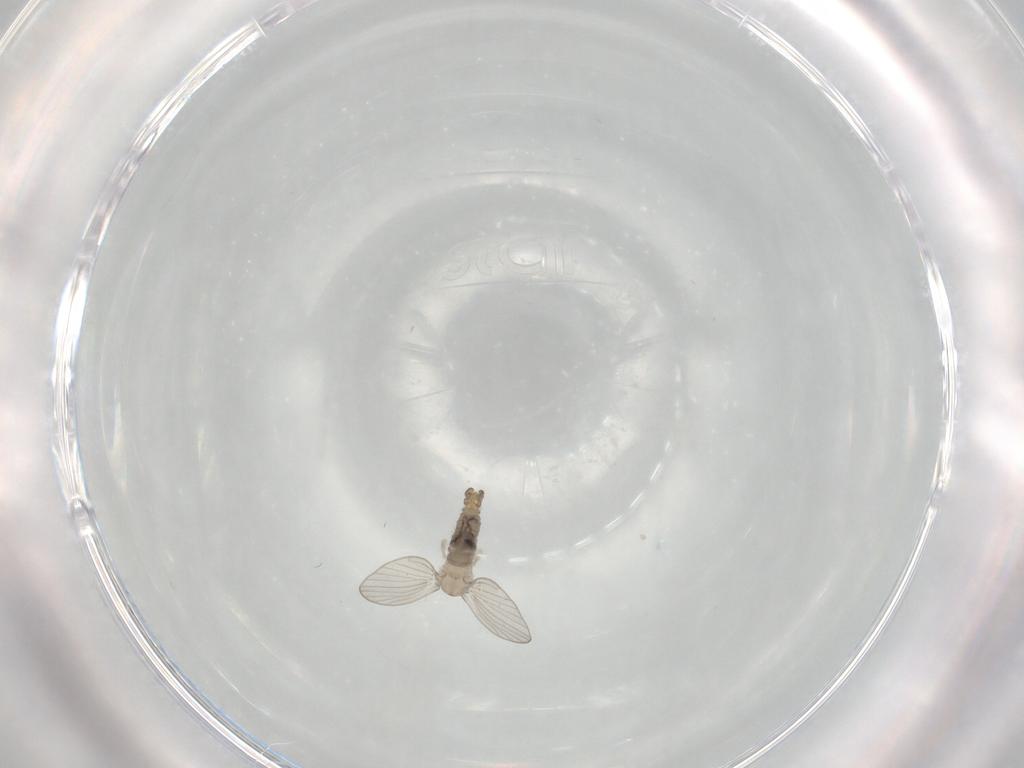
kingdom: Animalia
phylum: Arthropoda
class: Insecta
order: Diptera
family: Psychodidae
